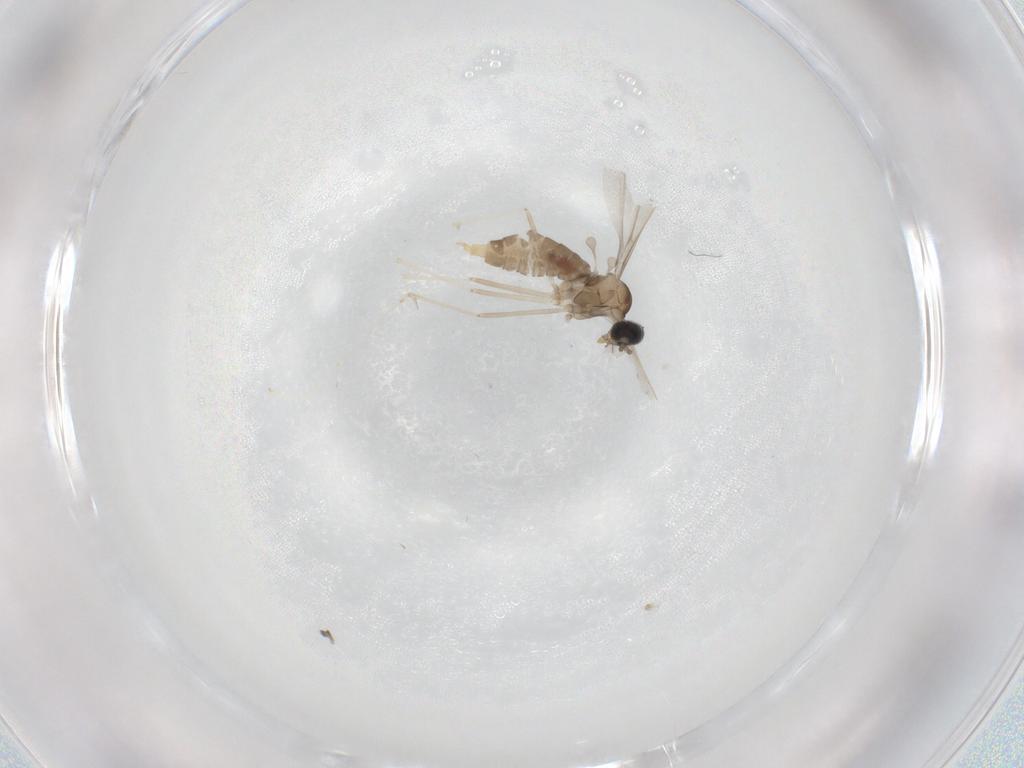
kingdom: Animalia
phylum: Arthropoda
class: Insecta
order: Diptera
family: Cecidomyiidae
